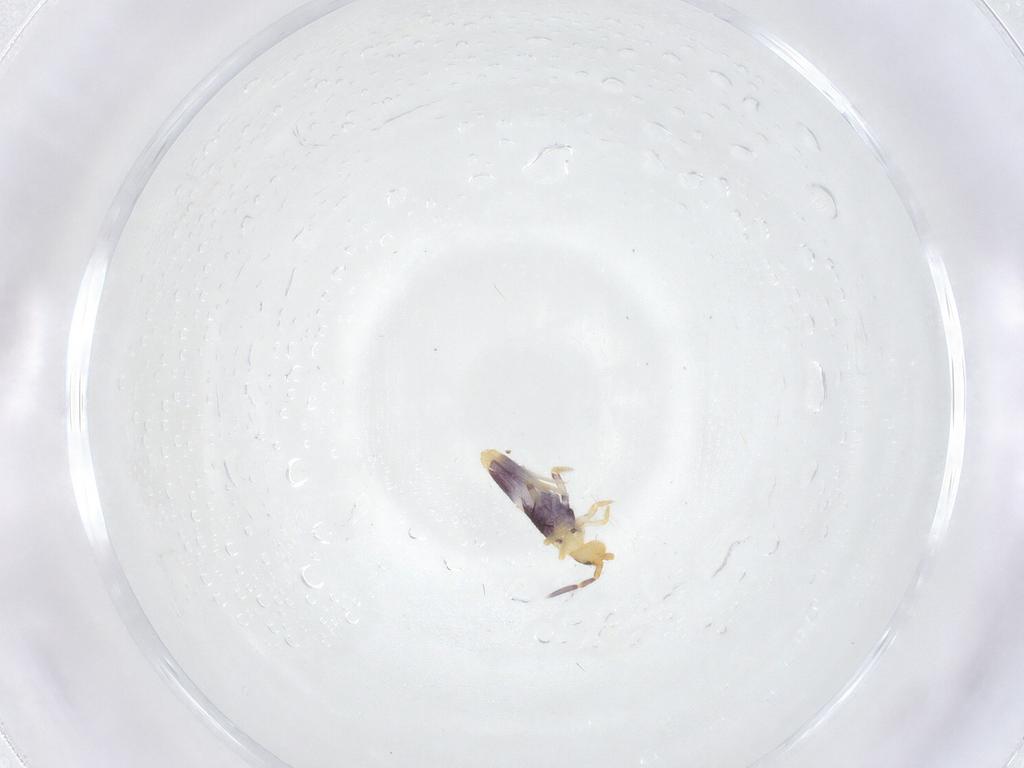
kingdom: Animalia
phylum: Arthropoda
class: Collembola
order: Entomobryomorpha
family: Entomobryidae
